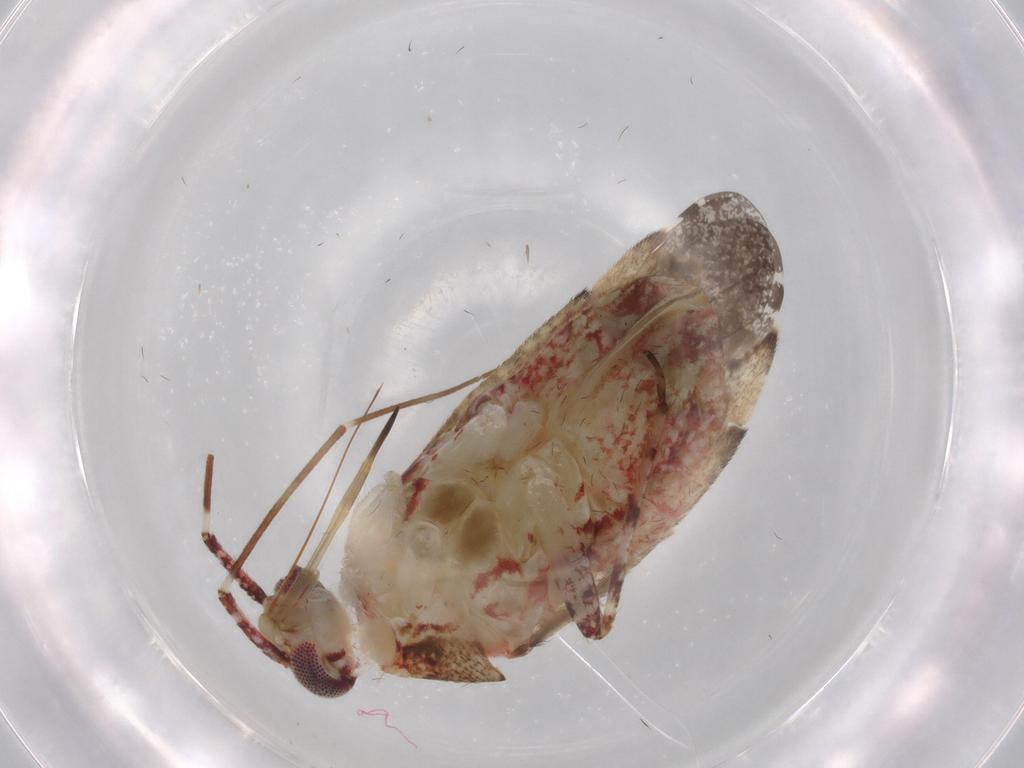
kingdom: Animalia
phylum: Arthropoda
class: Insecta
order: Hemiptera
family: Miridae
